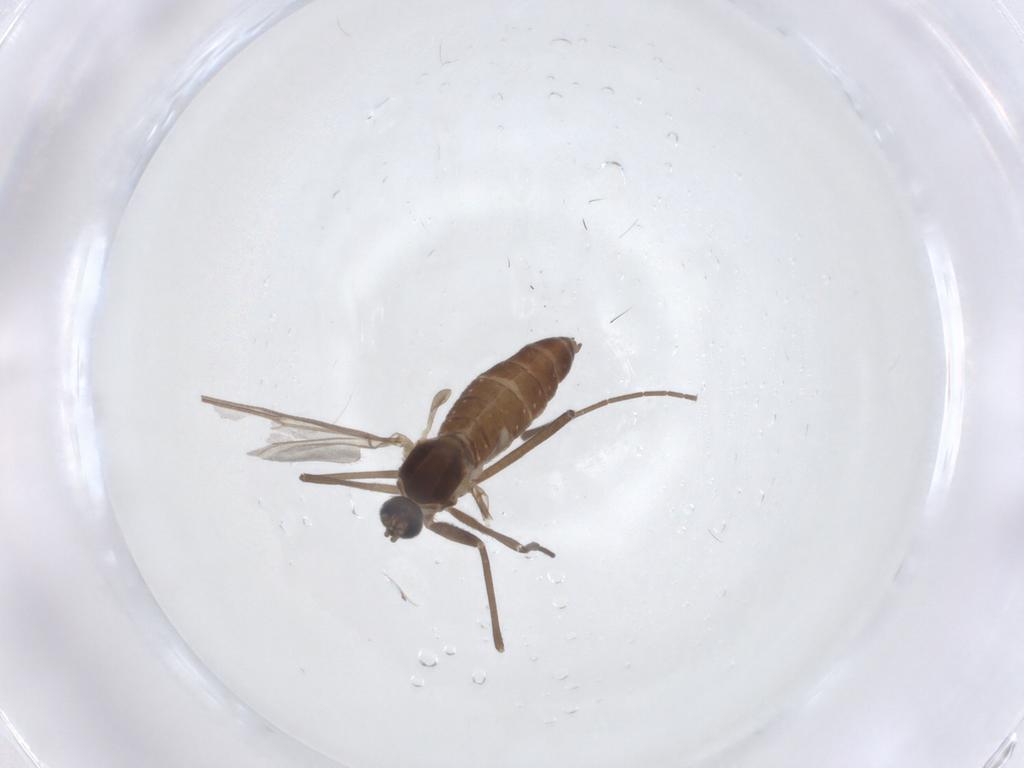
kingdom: Animalia
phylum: Arthropoda
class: Insecta
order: Diptera
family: Cecidomyiidae
